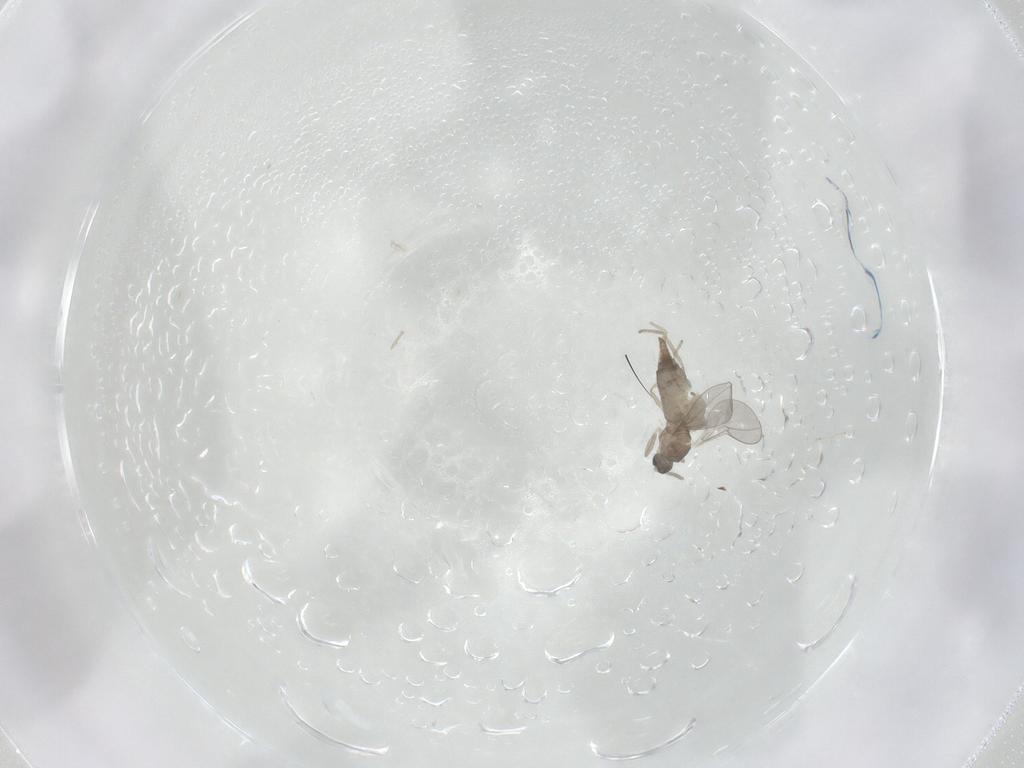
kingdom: Animalia
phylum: Arthropoda
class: Insecta
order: Diptera
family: Cecidomyiidae
